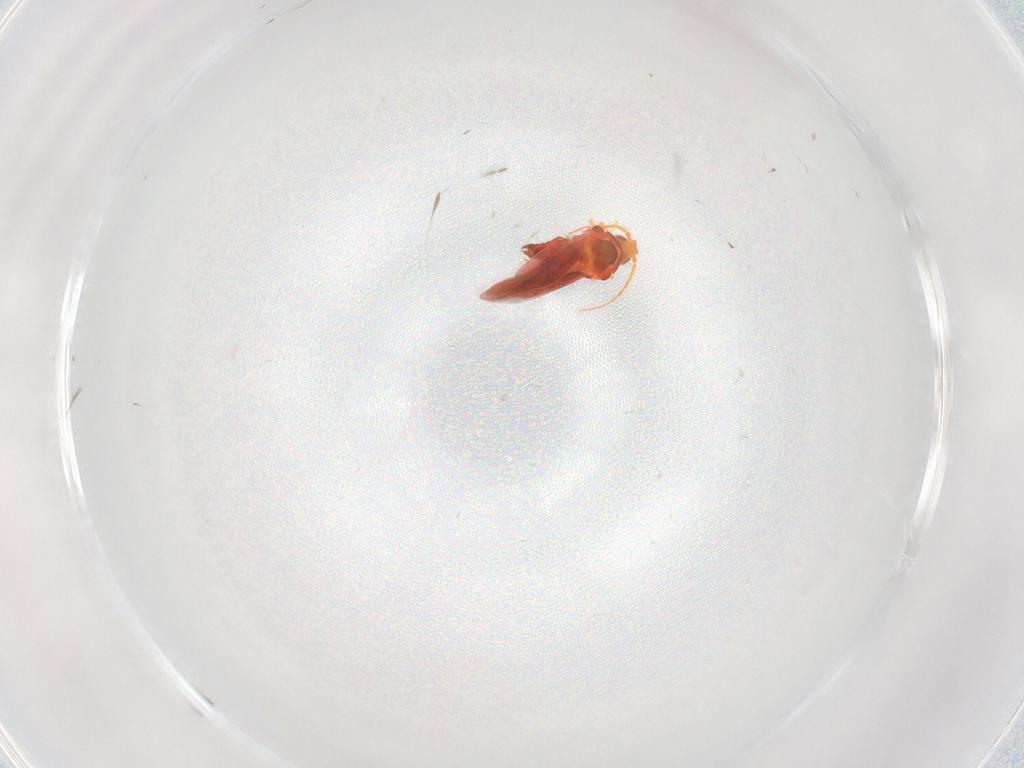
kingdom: Animalia
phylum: Arthropoda
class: Insecta
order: Hemiptera
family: Aleyrodidae
